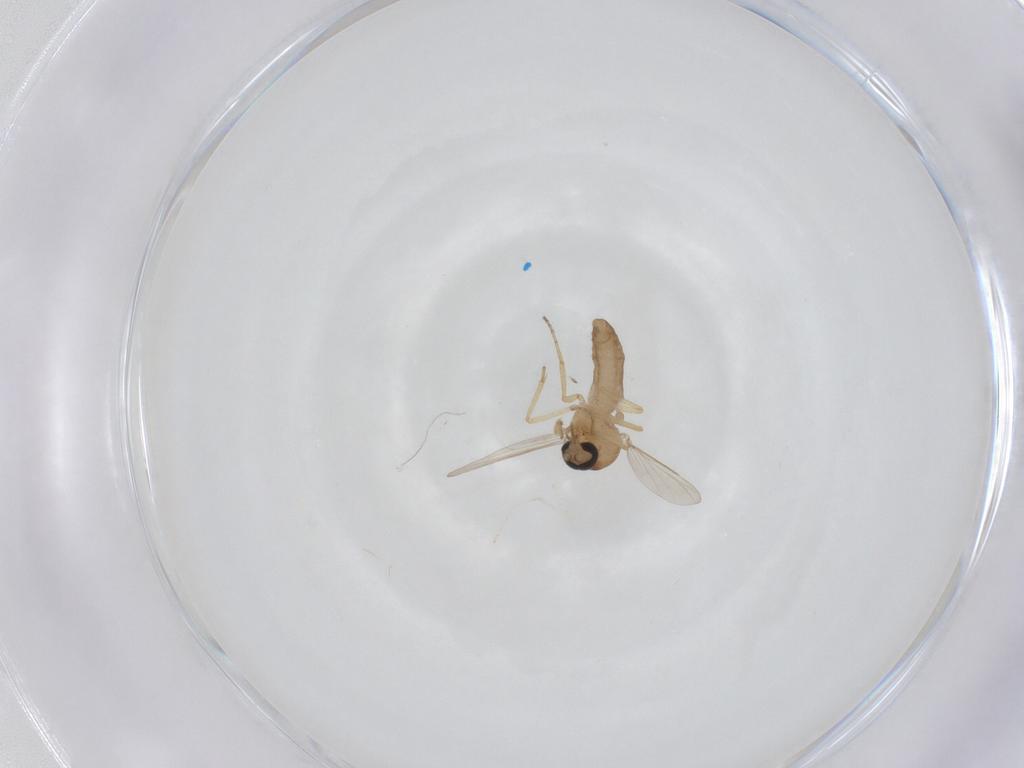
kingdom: Animalia
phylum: Arthropoda
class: Insecta
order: Diptera
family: Ceratopogonidae
